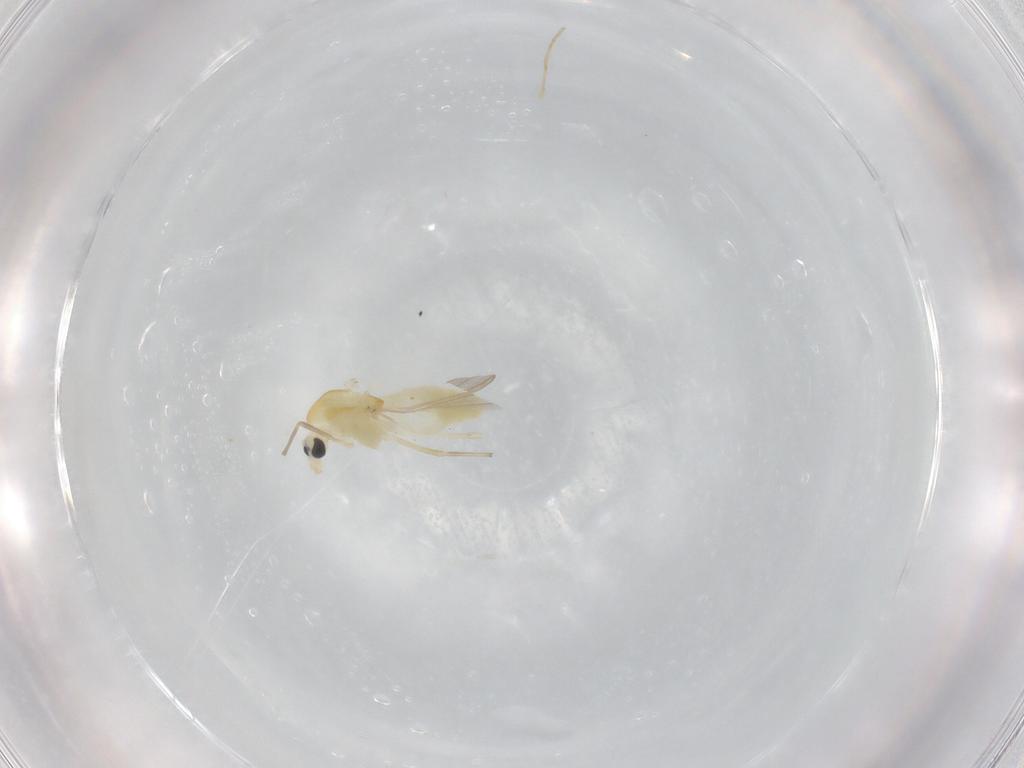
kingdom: Animalia
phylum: Arthropoda
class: Insecta
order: Diptera
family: Chironomidae
